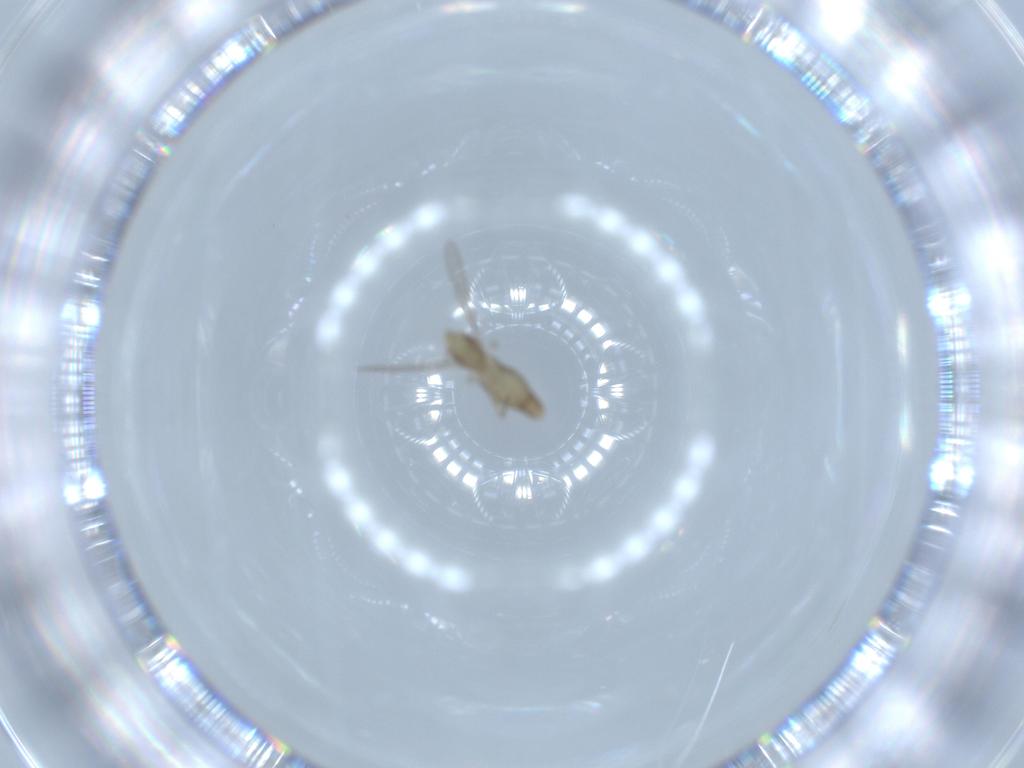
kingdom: Animalia
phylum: Arthropoda
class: Insecta
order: Diptera
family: Chironomidae
